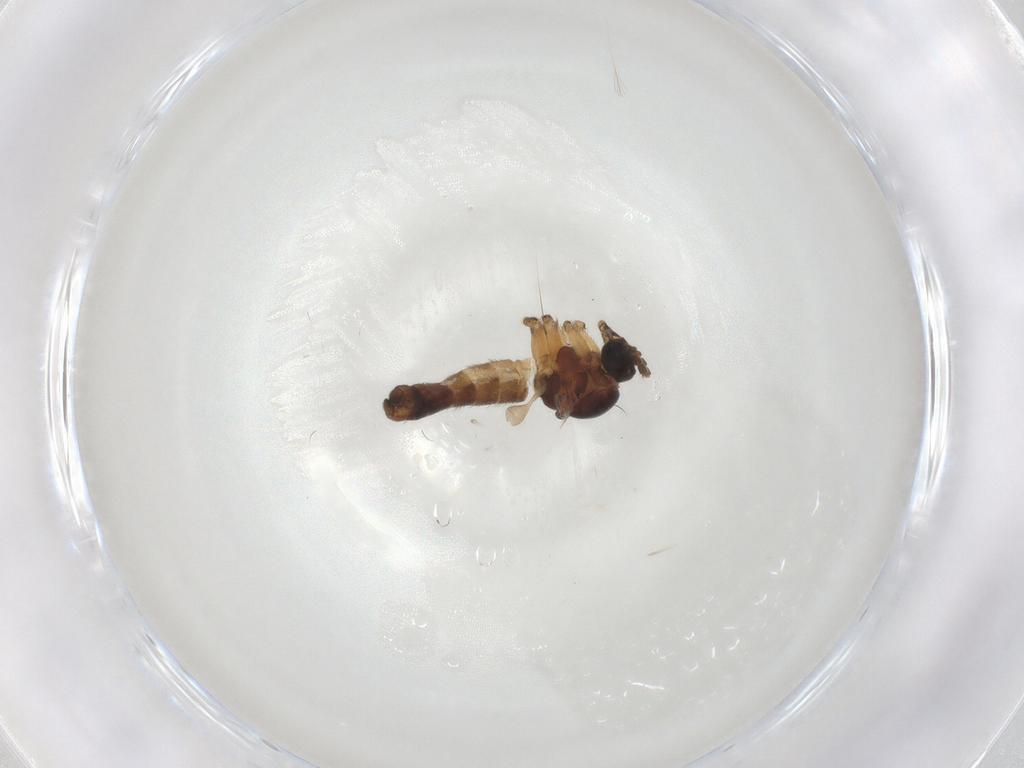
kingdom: Animalia
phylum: Arthropoda
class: Insecta
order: Diptera
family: Sciaridae
